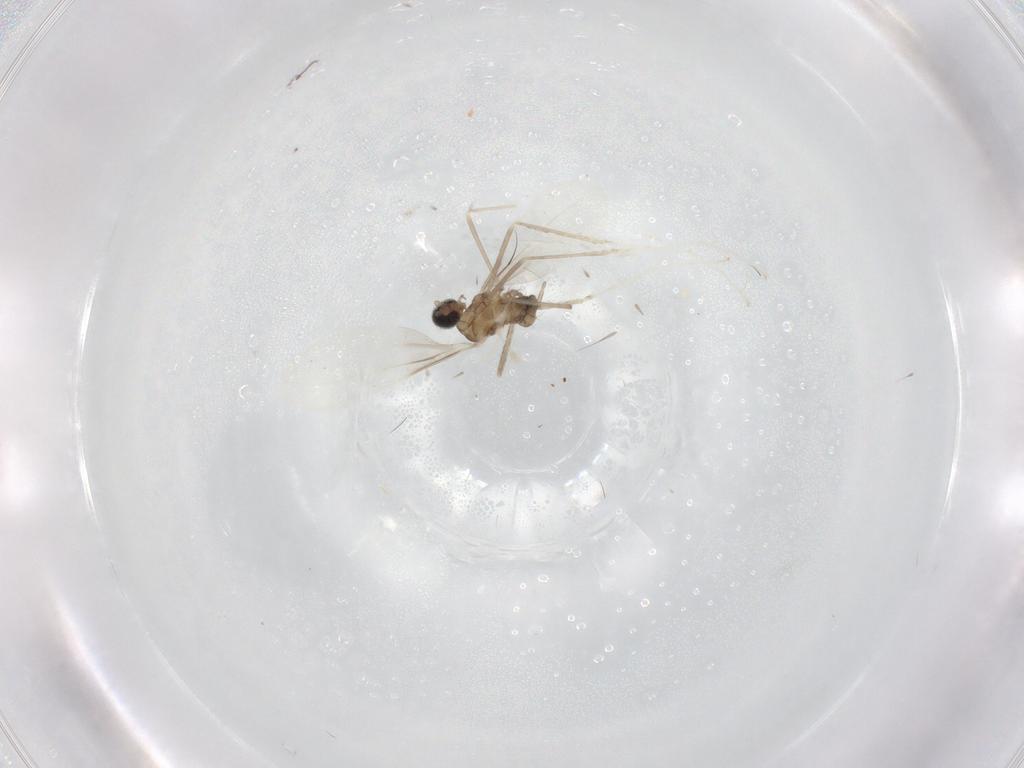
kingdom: Animalia
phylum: Arthropoda
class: Insecta
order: Diptera
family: Cecidomyiidae
